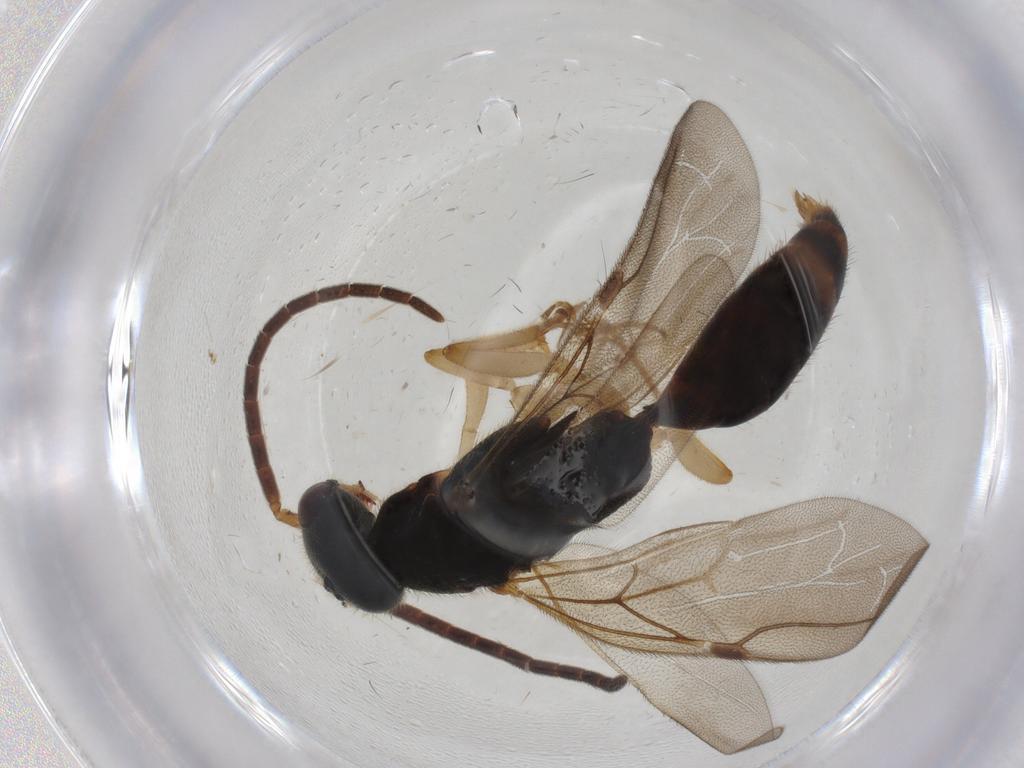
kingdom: Animalia
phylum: Arthropoda
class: Insecta
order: Hymenoptera
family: Bethylidae
